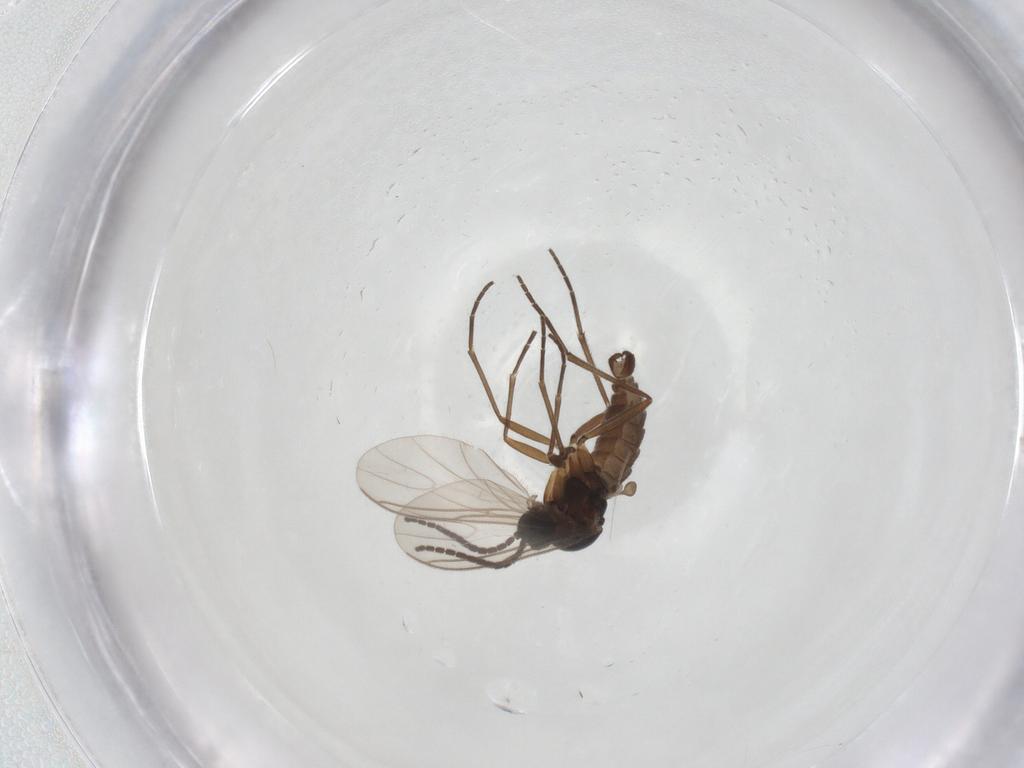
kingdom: Animalia
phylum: Arthropoda
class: Insecta
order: Diptera
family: Sciaridae
